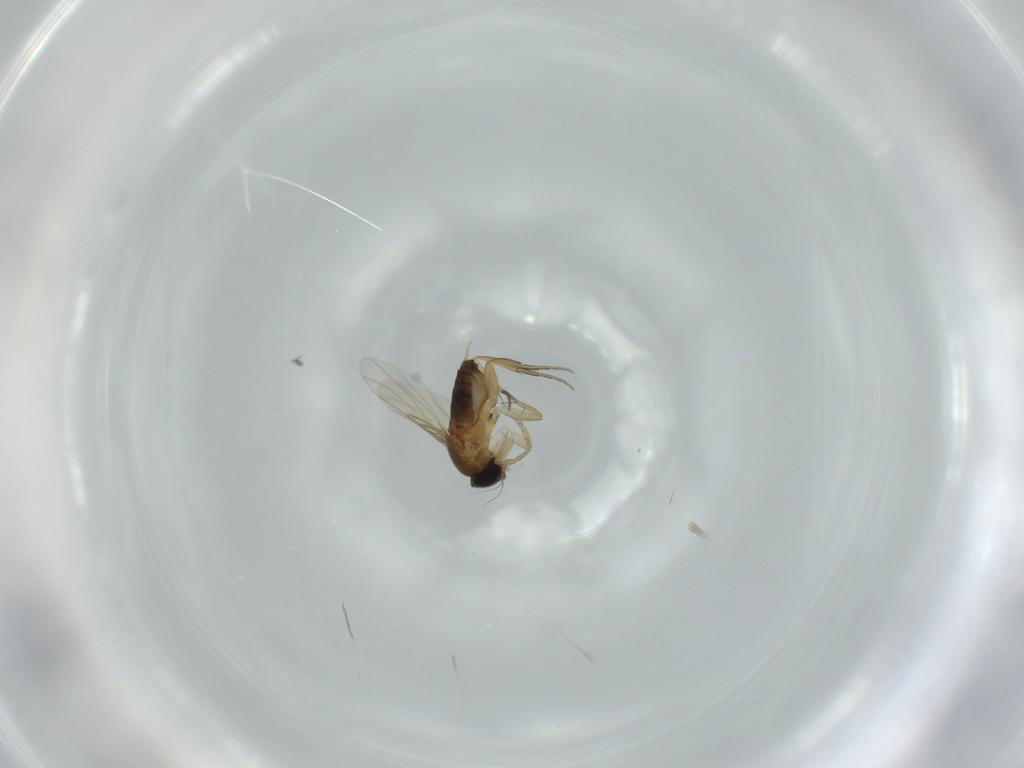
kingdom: Animalia
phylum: Arthropoda
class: Insecta
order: Diptera
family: Phoridae
